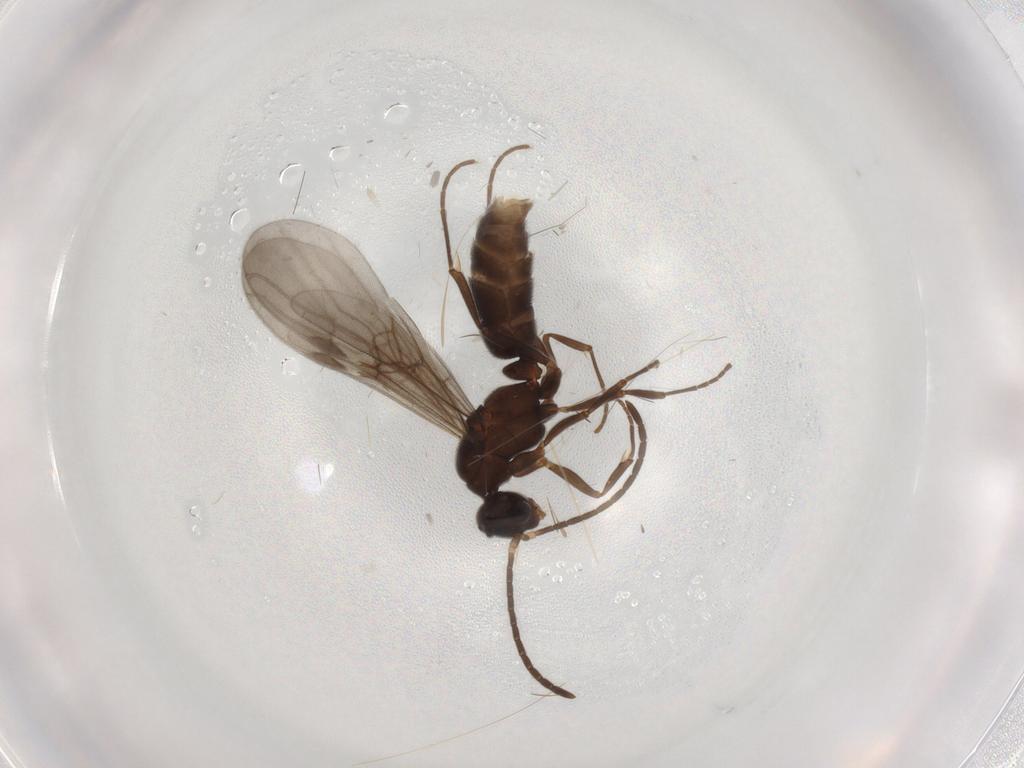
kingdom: Animalia
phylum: Arthropoda
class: Insecta
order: Hymenoptera
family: Formicidae
